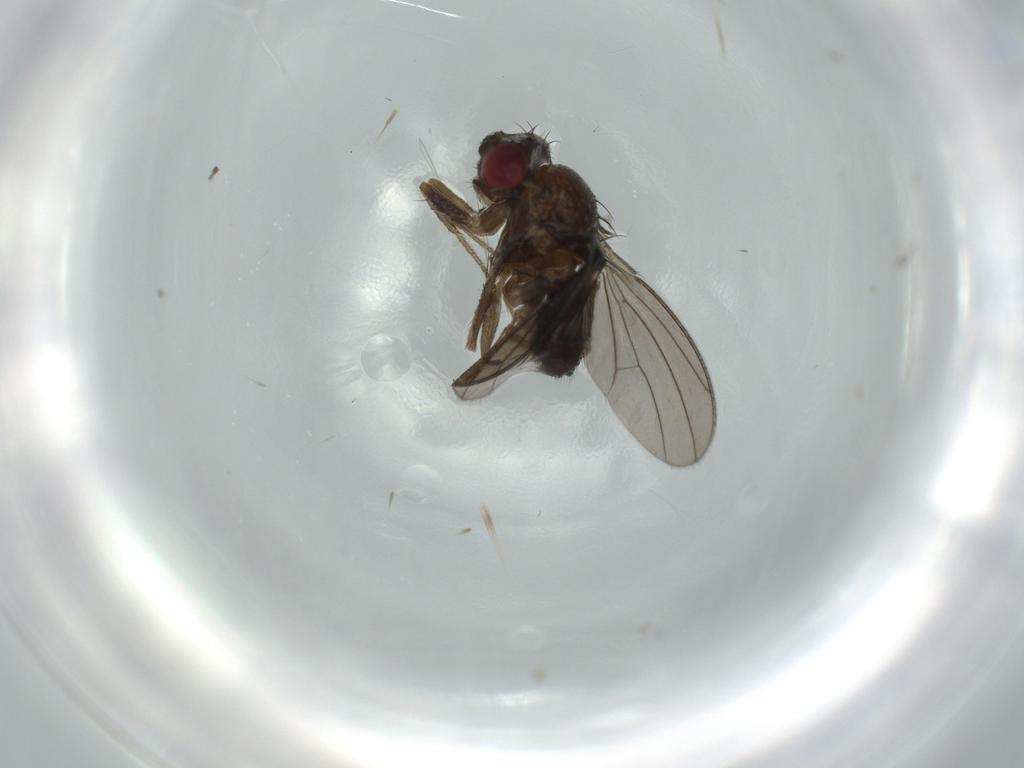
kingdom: Animalia
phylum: Arthropoda
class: Insecta
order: Diptera
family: Drosophilidae
